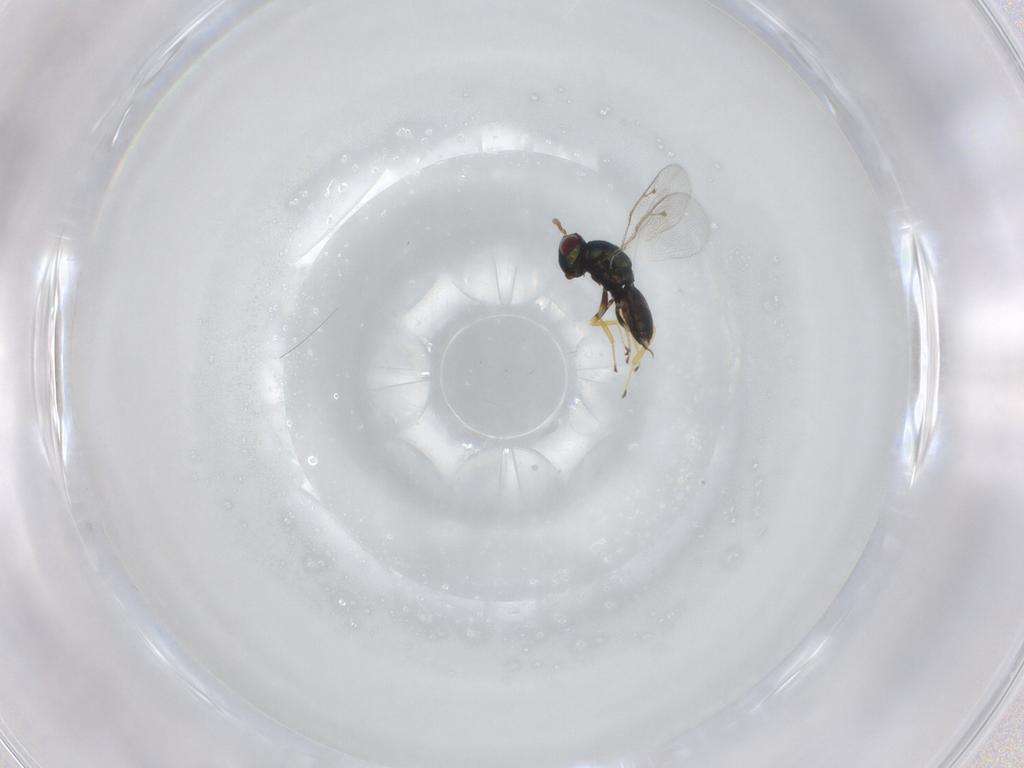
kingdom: Animalia
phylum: Arthropoda
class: Insecta
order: Hymenoptera
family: Pteromalidae
